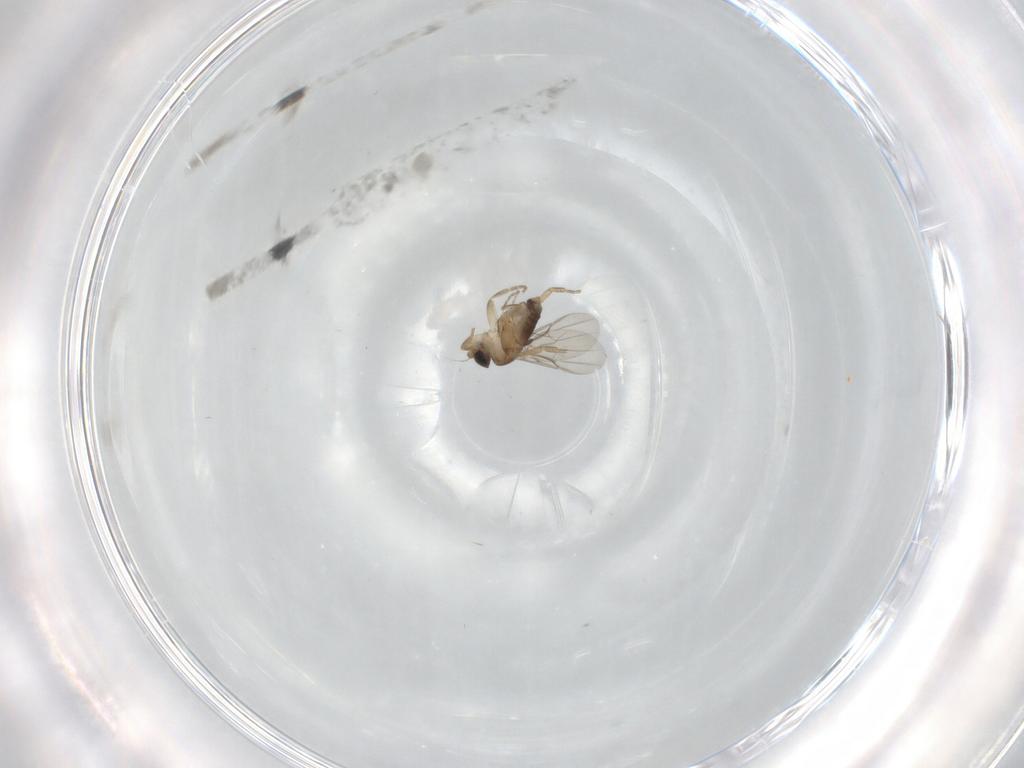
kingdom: Animalia
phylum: Arthropoda
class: Insecta
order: Diptera
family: Phoridae
